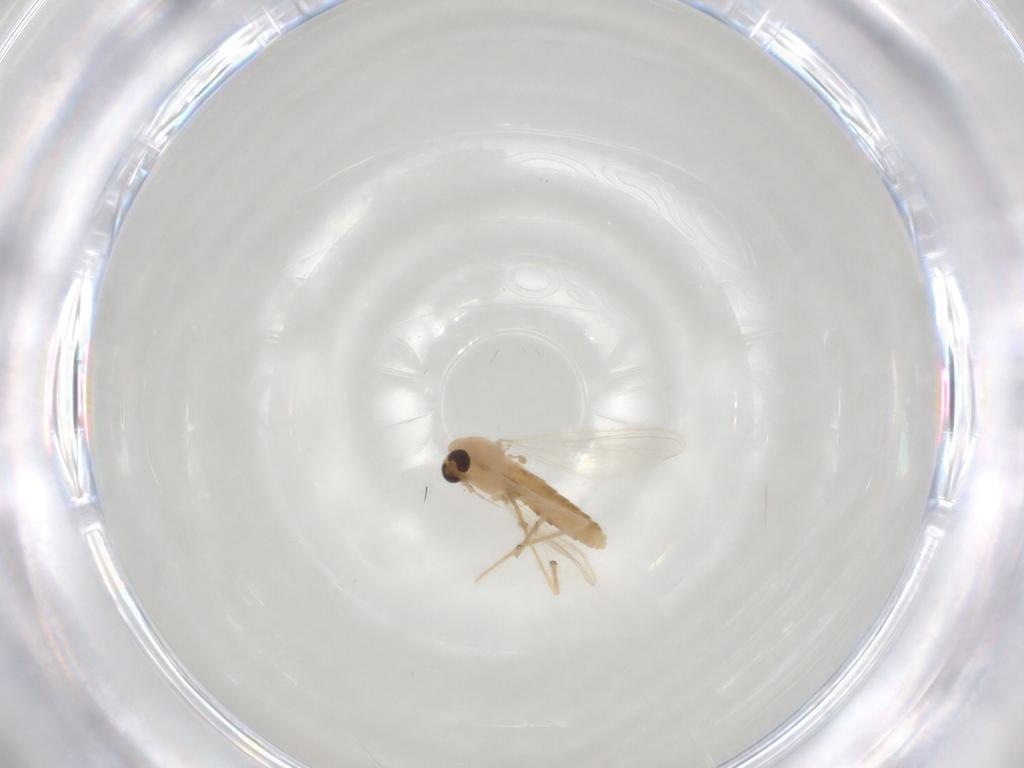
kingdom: Animalia
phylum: Arthropoda
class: Insecta
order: Diptera
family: Chironomidae
